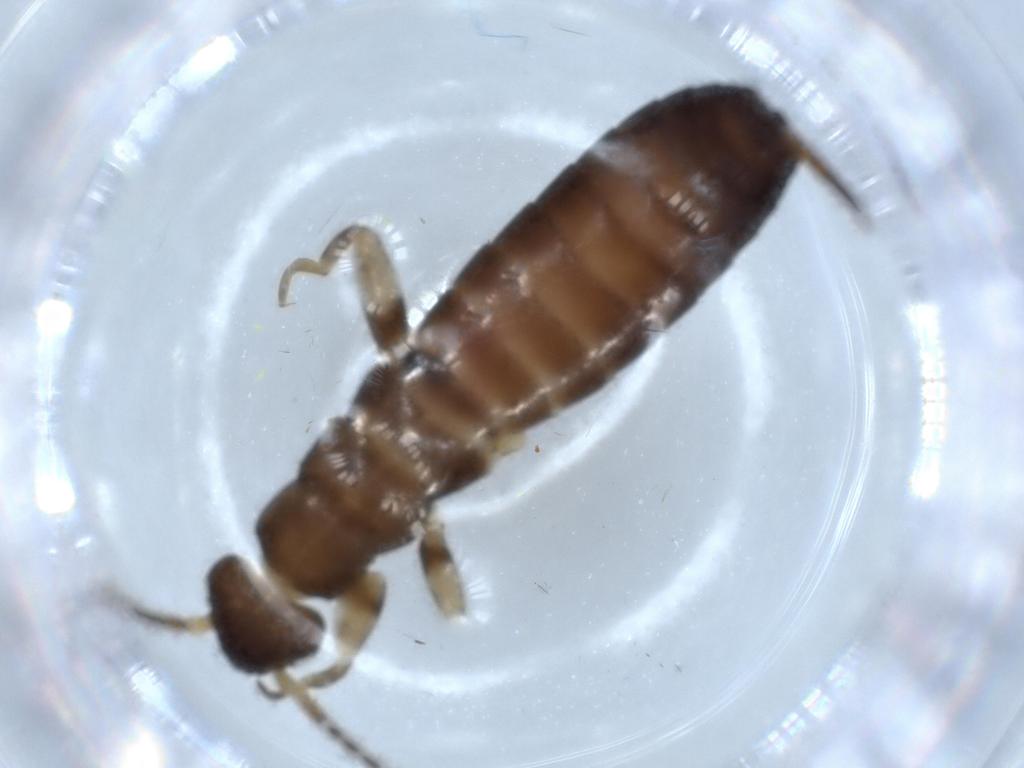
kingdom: Animalia
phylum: Arthropoda
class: Insecta
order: Dermaptera
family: Labiduridae
